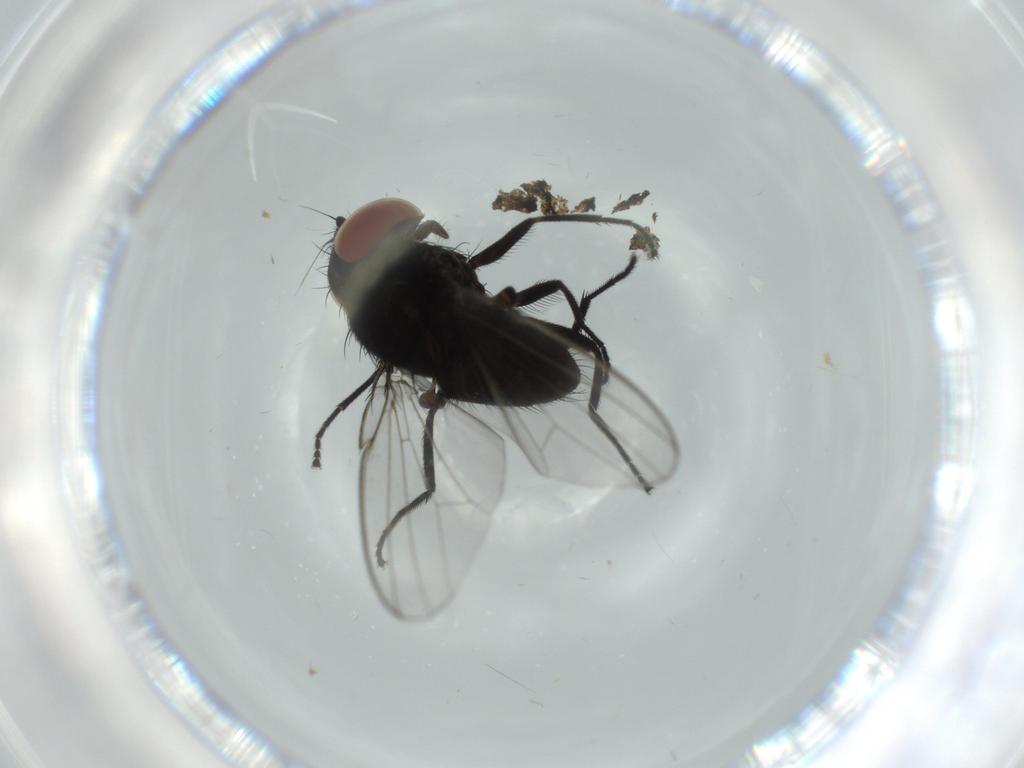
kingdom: Animalia
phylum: Arthropoda
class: Insecta
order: Diptera
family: Milichiidae
